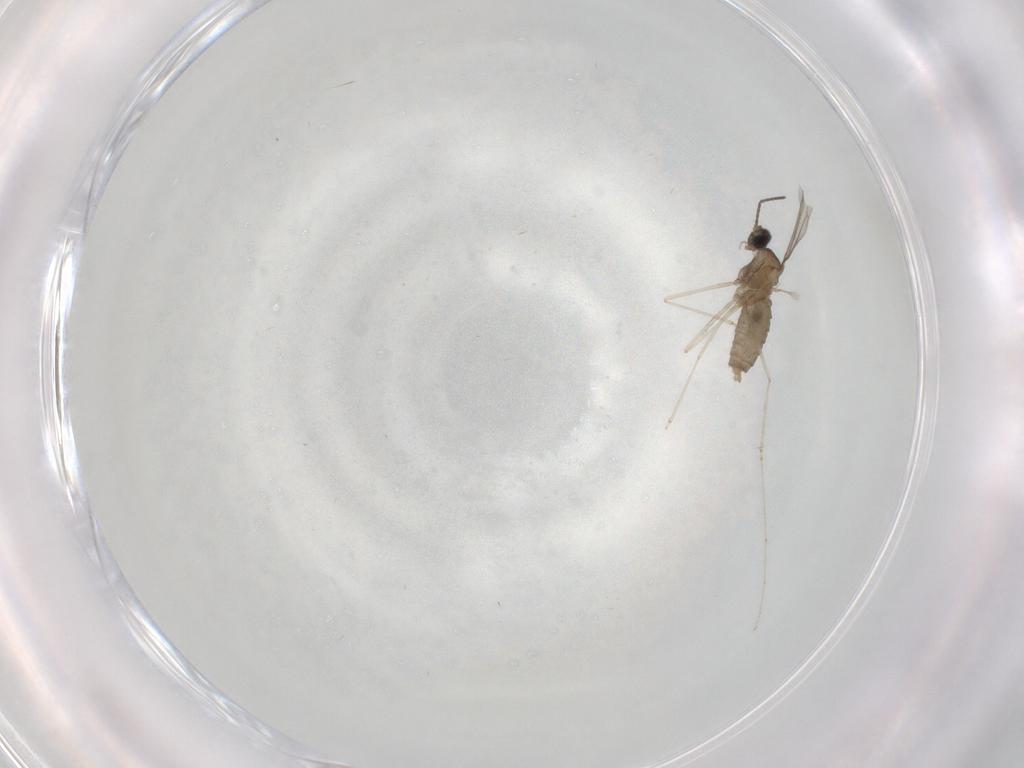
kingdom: Animalia
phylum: Arthropoda
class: Insecta
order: Diptera
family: Cecidomyiidae
